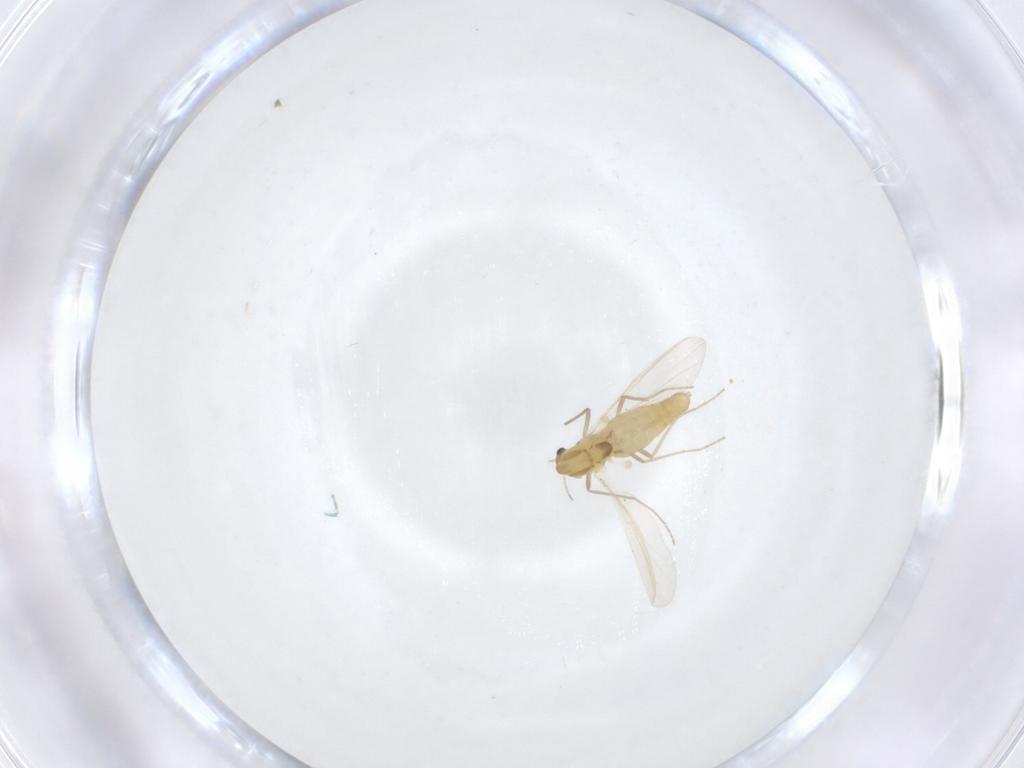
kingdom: Animalia
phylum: Arthropoda
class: Insecta
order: Diptera
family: Chironomidae
